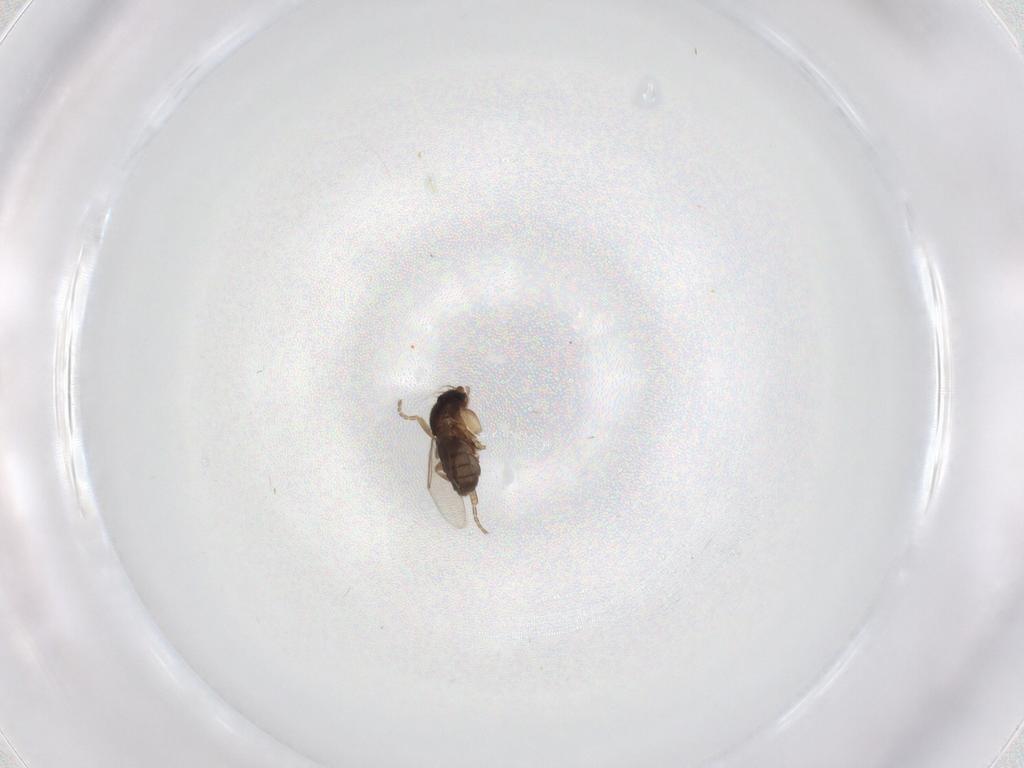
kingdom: Animalia
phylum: Arthropoda
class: Insecta
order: Diptera
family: Phoridae
